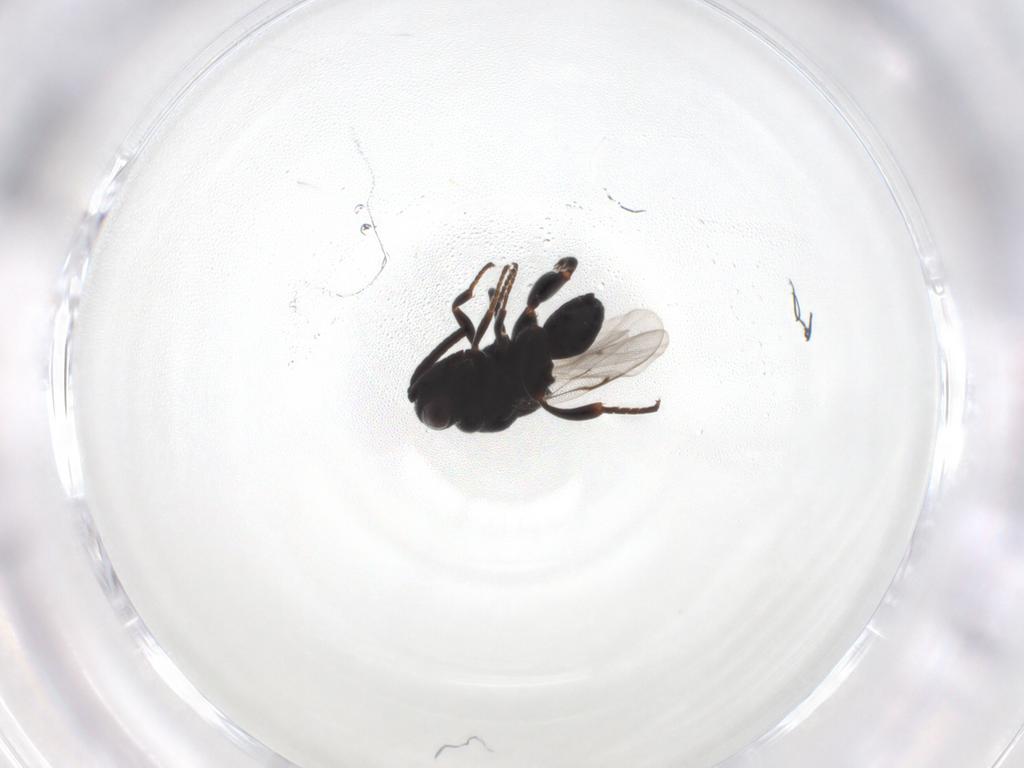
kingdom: Animalia
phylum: Arthropoda
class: Insecta
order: Hymenoptera
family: Chalcididae
